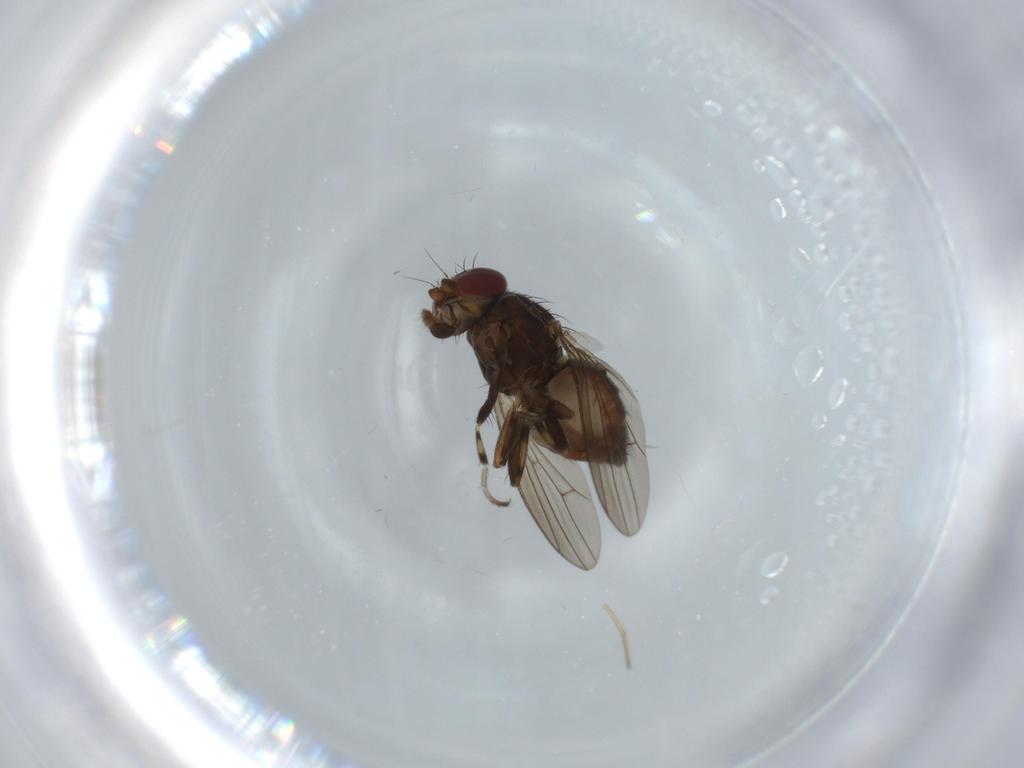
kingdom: Animalia
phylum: Arthropoda
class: Insecta
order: Diptera
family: Heleomyzidae
